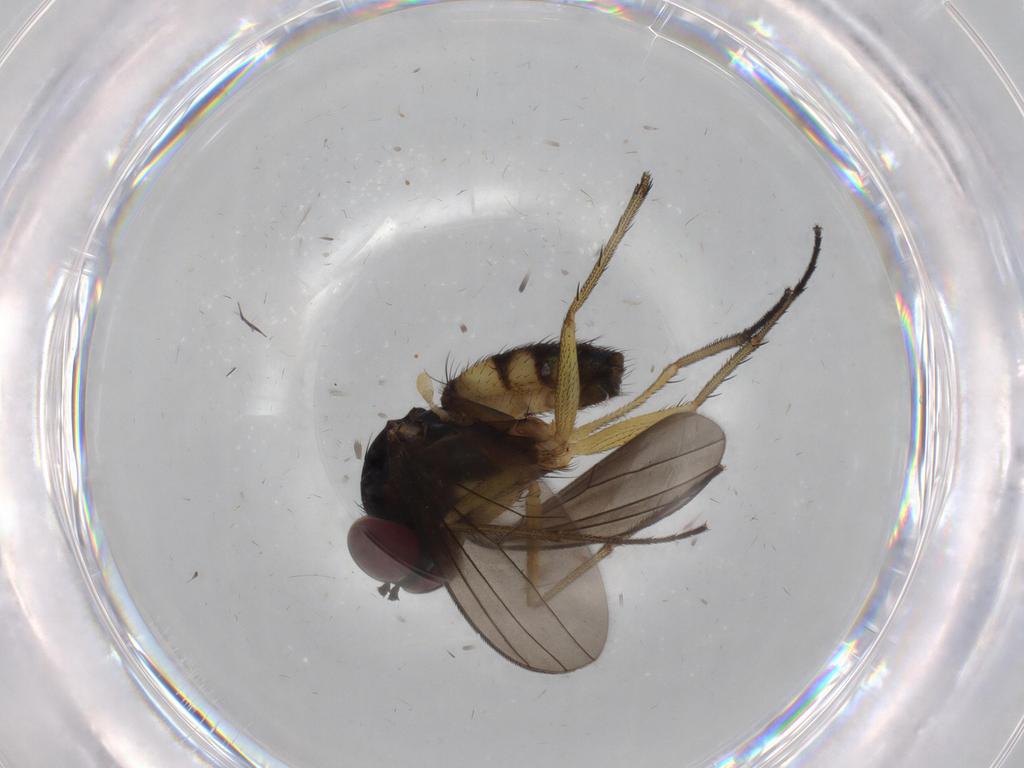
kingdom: Animalia
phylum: Arthropoda
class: Insecta
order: Diptera
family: Dolichopodidae
